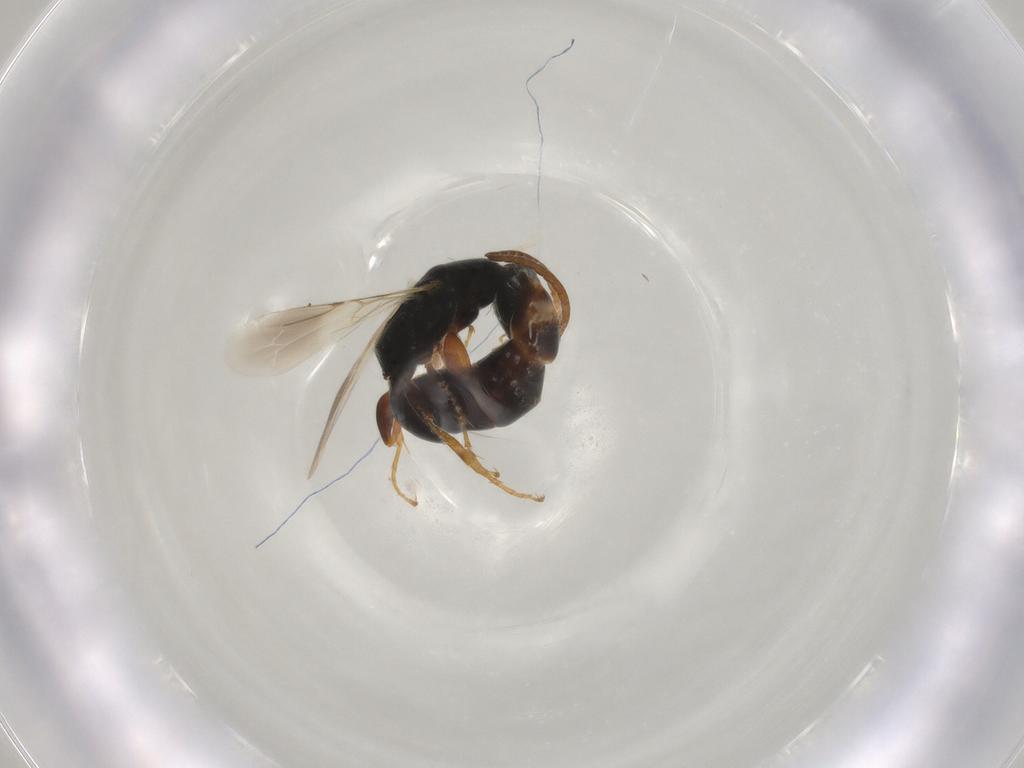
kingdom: Animalia
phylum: Arthropoda
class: Insecta
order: Hymenoptera
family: Bethylidae
